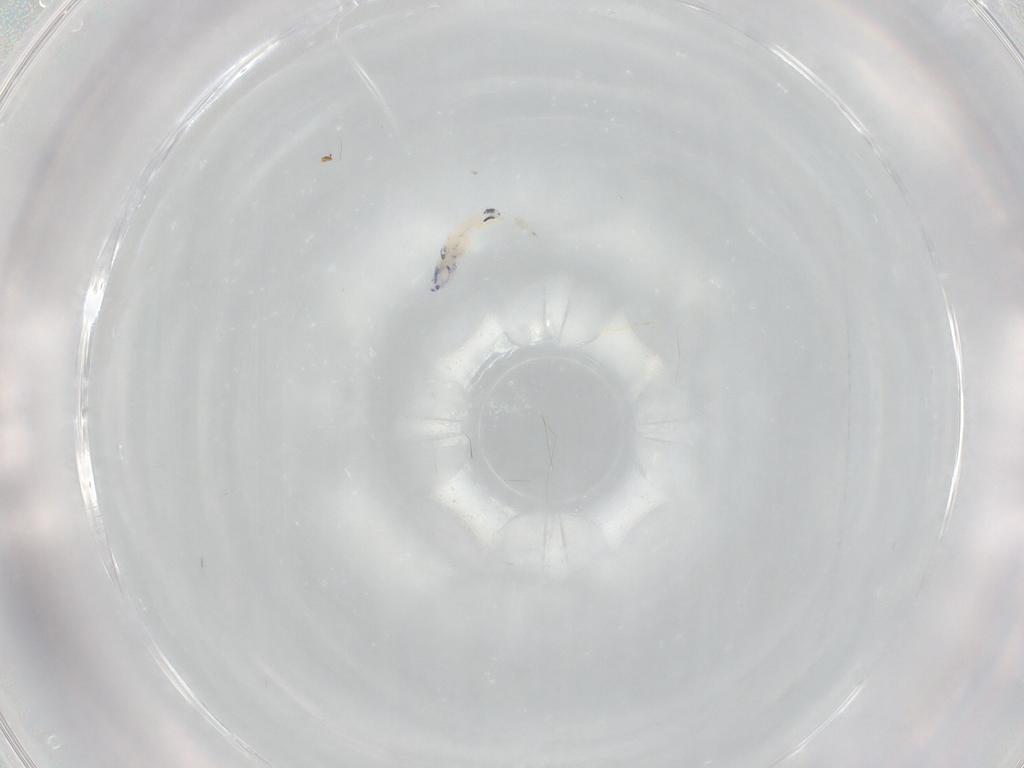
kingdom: Animalia
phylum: Arthropoda
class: Collembola
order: Entomobryomorpha
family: Entomobryidae
